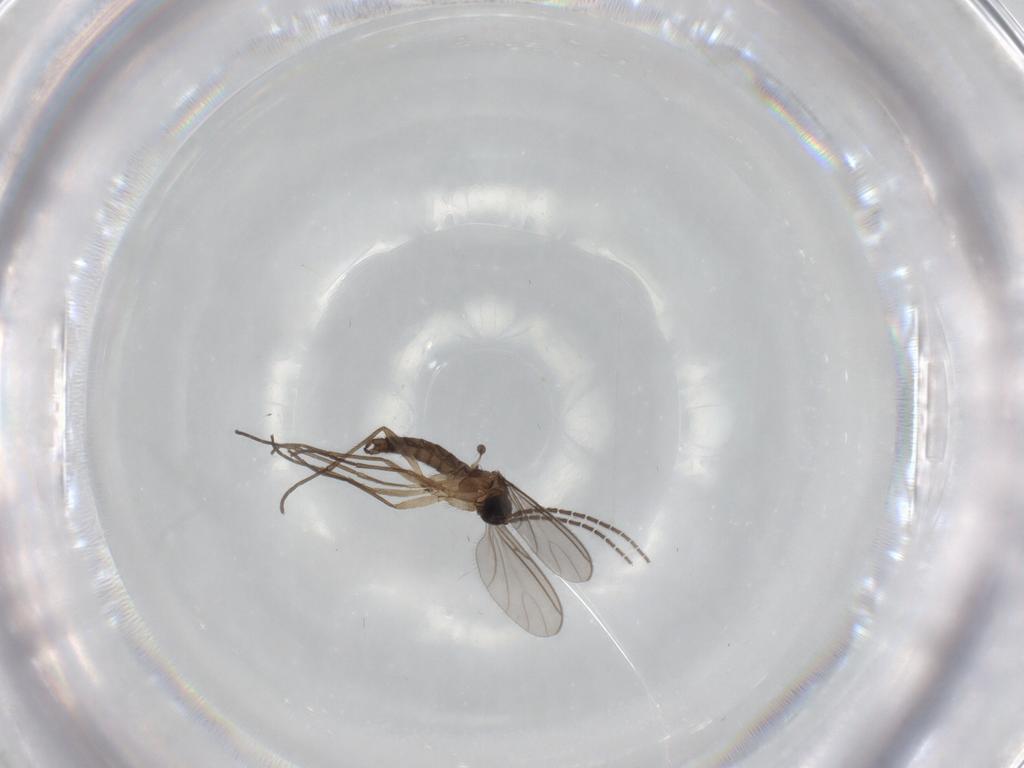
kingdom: Animalia
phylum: Arthropoda
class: Insecta
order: Diptera
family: Sciaridae
